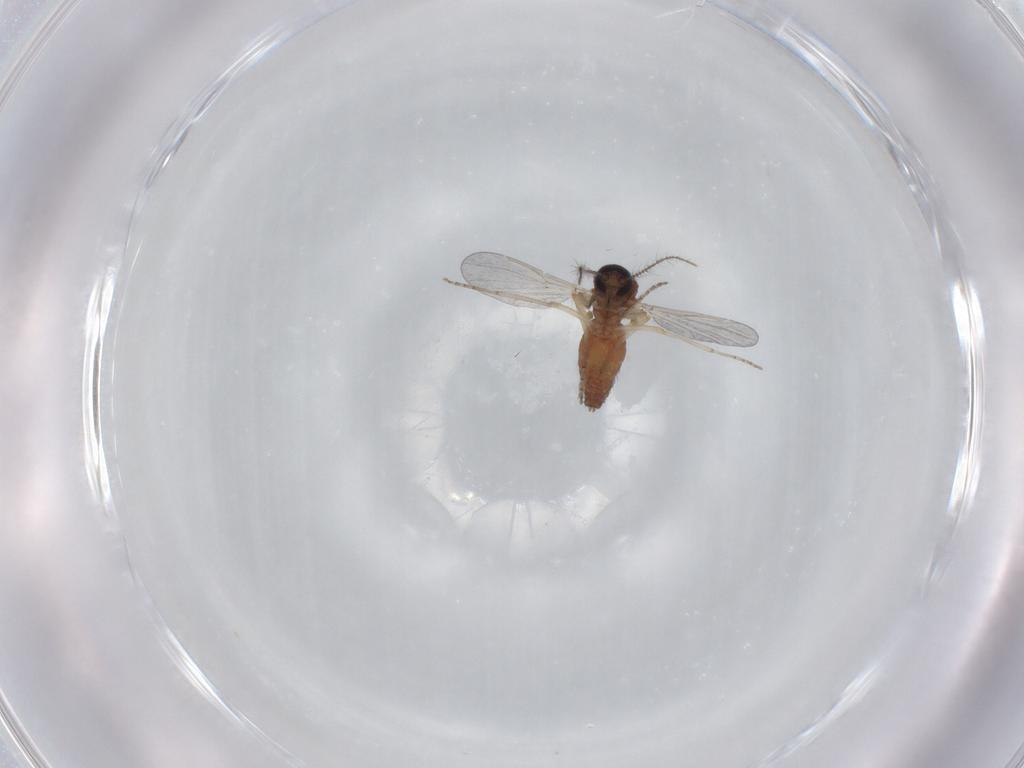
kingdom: Animalia
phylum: Arthropoda
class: Insecta
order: Diptera
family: Ceratopogonidae
